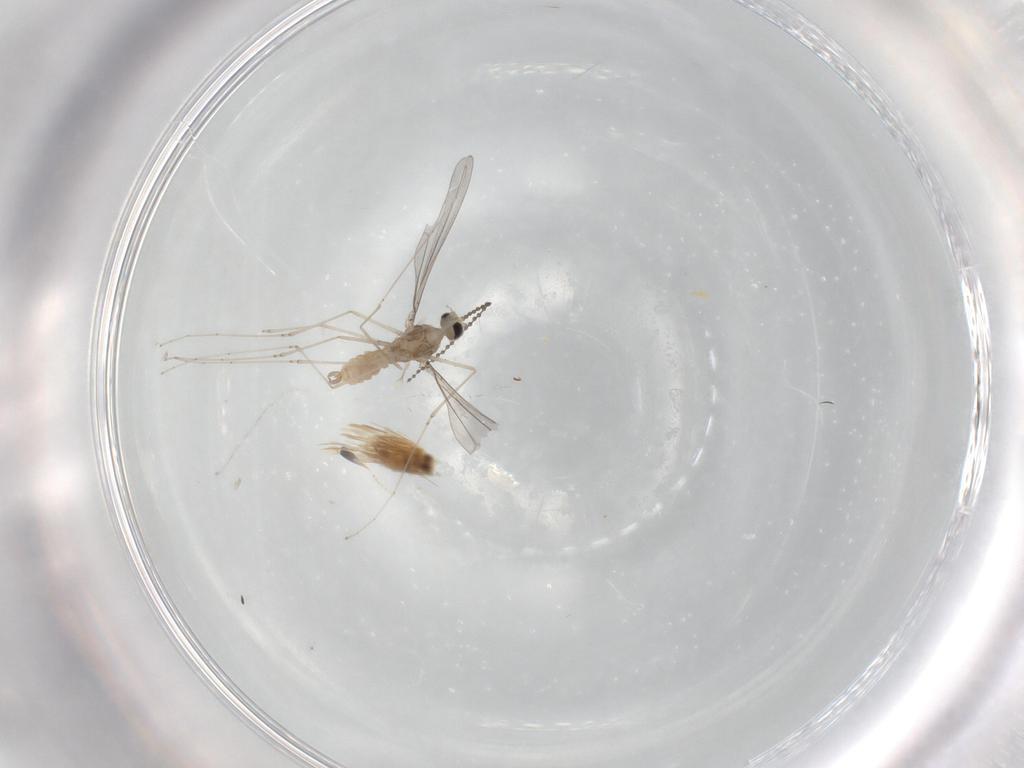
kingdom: Animalia
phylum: Arthropoda
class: Insecta
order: Diptera
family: Cecidomyiidae
